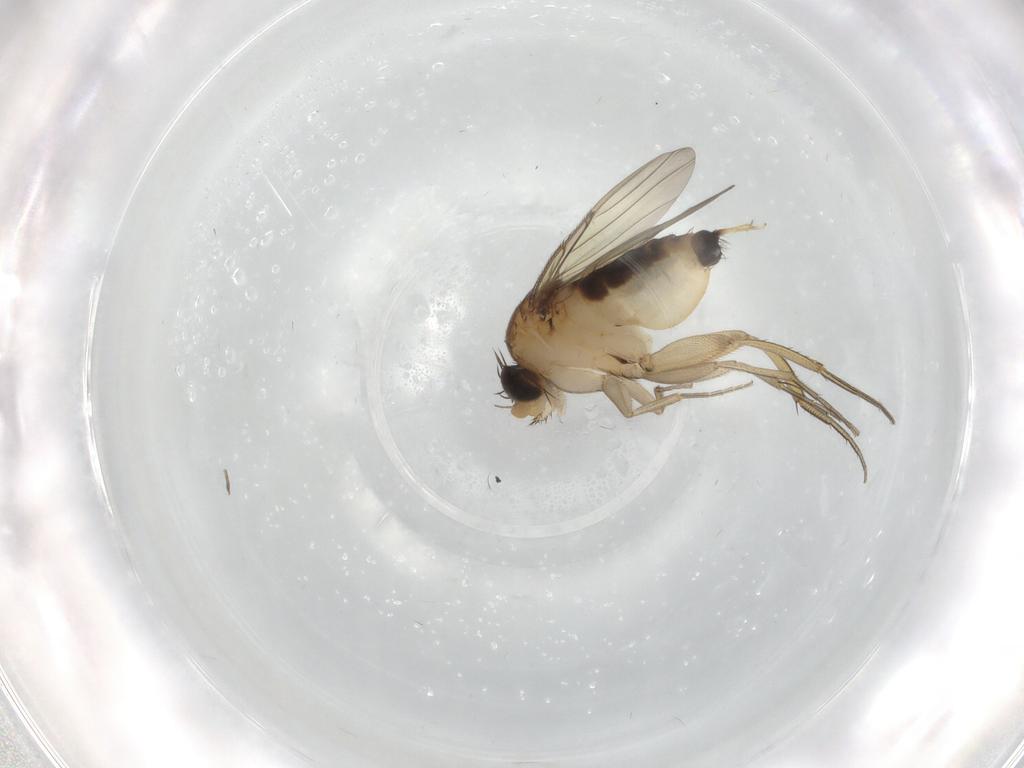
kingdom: Animalia
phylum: Arthropoda
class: Insecta
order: Diptera
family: Phoridae
